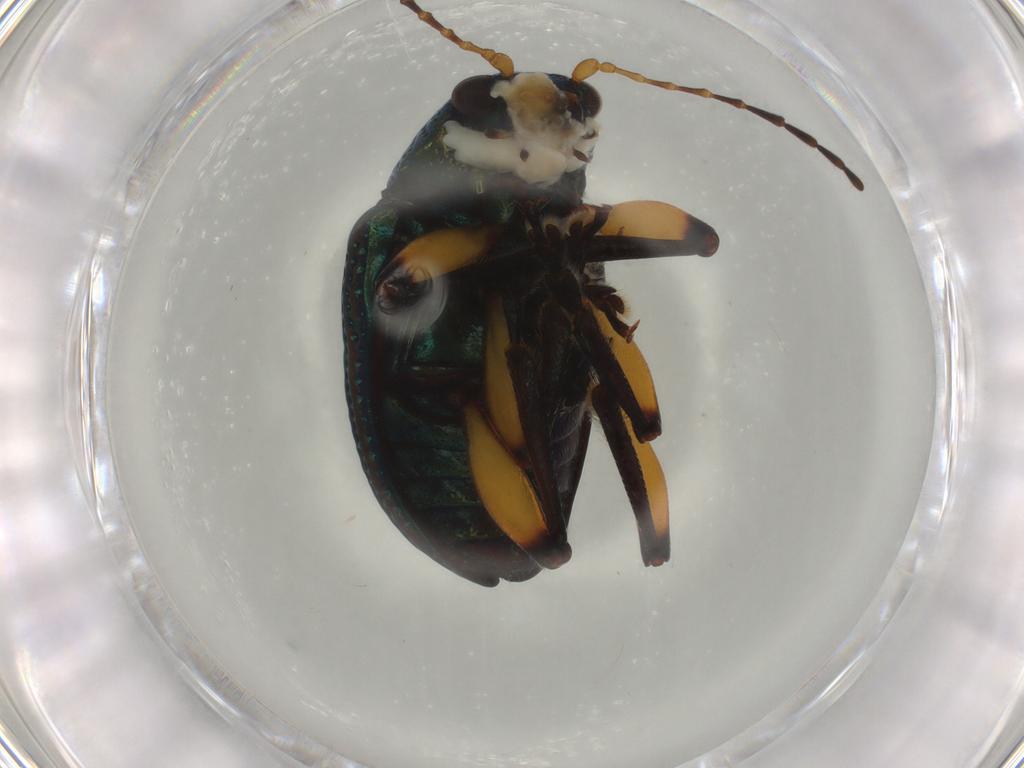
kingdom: Animalia
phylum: Arthropoda
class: Insecta
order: Coleoptera
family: Chrysomelidae
